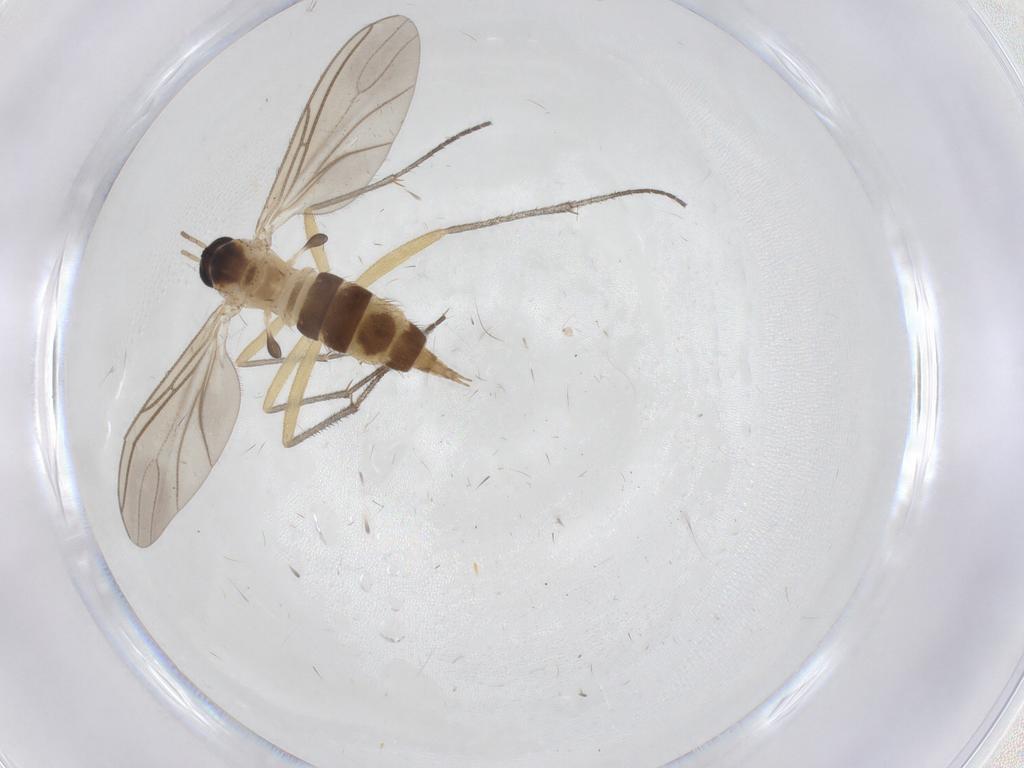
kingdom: Animalia
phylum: Arthropoda
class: Insecta
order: Diptera
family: Sciaridae
